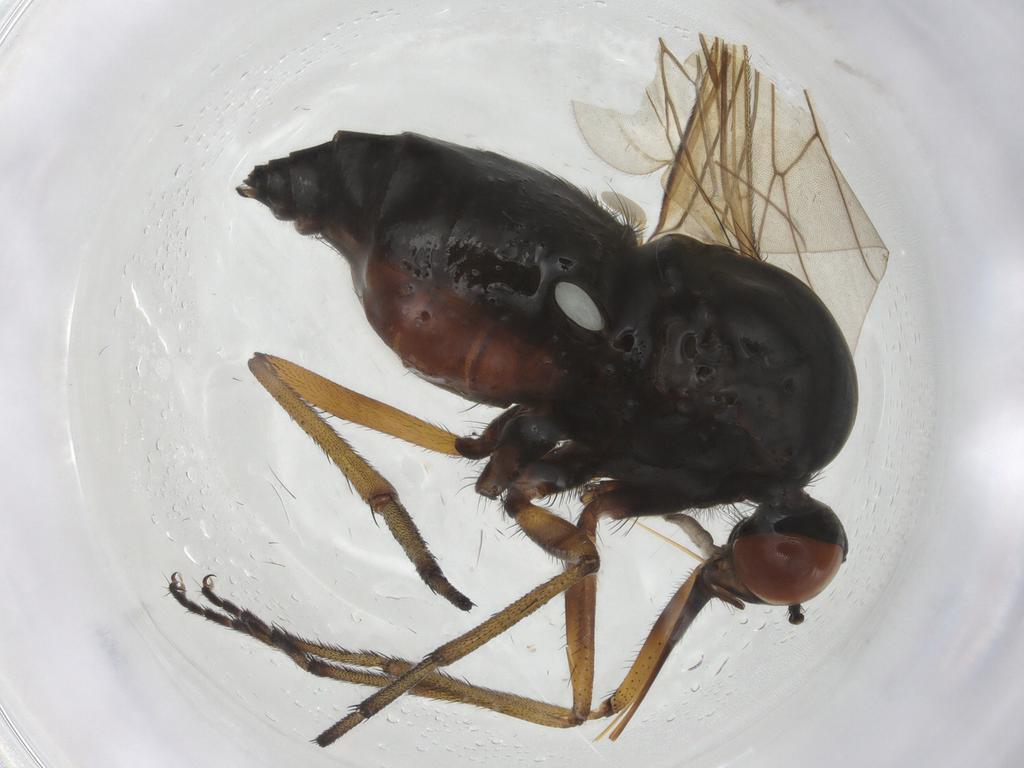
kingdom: Animalia
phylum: Arthropoda
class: Insecta
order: Diptera
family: Empididae
